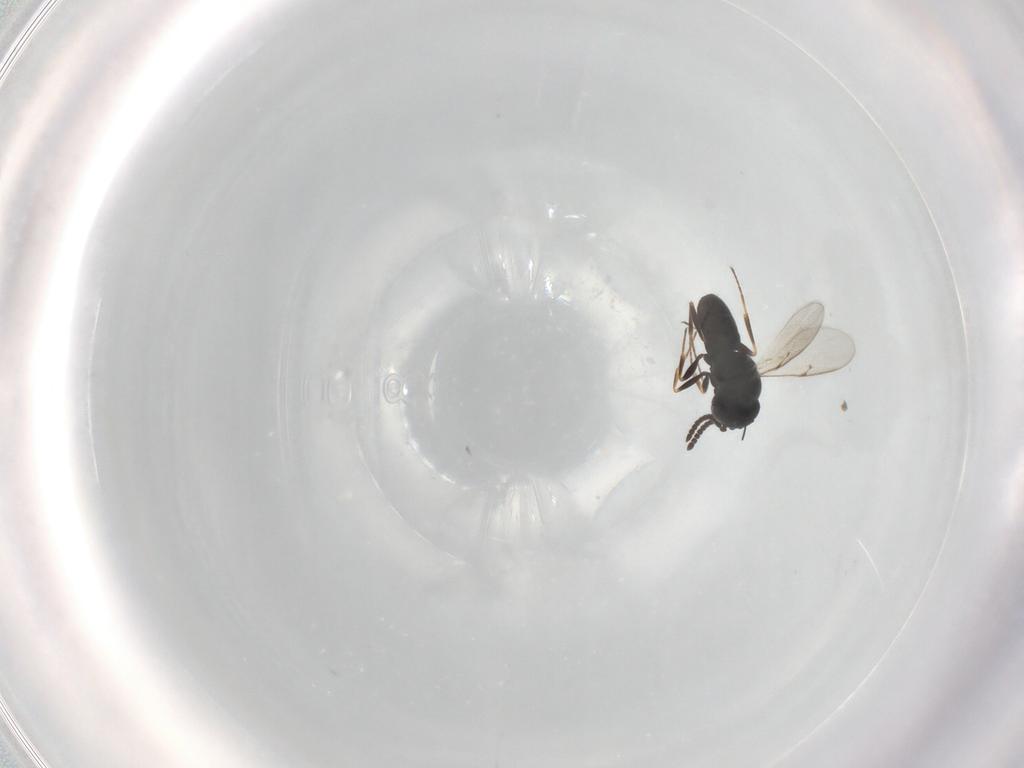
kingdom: Animalia
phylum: Arthropoda
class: Insecta
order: Hymenoptera
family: Scelionidae
